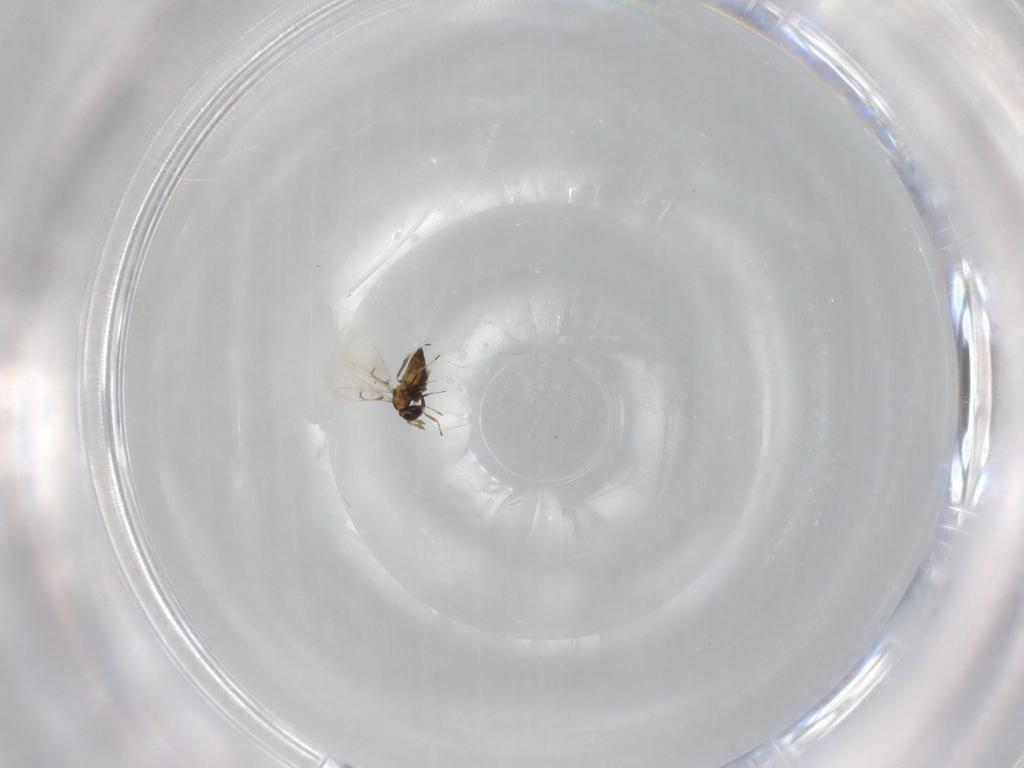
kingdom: Animalia
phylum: Arthropoda
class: Insecta
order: Hymenoptera
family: Trichogrammatidae
